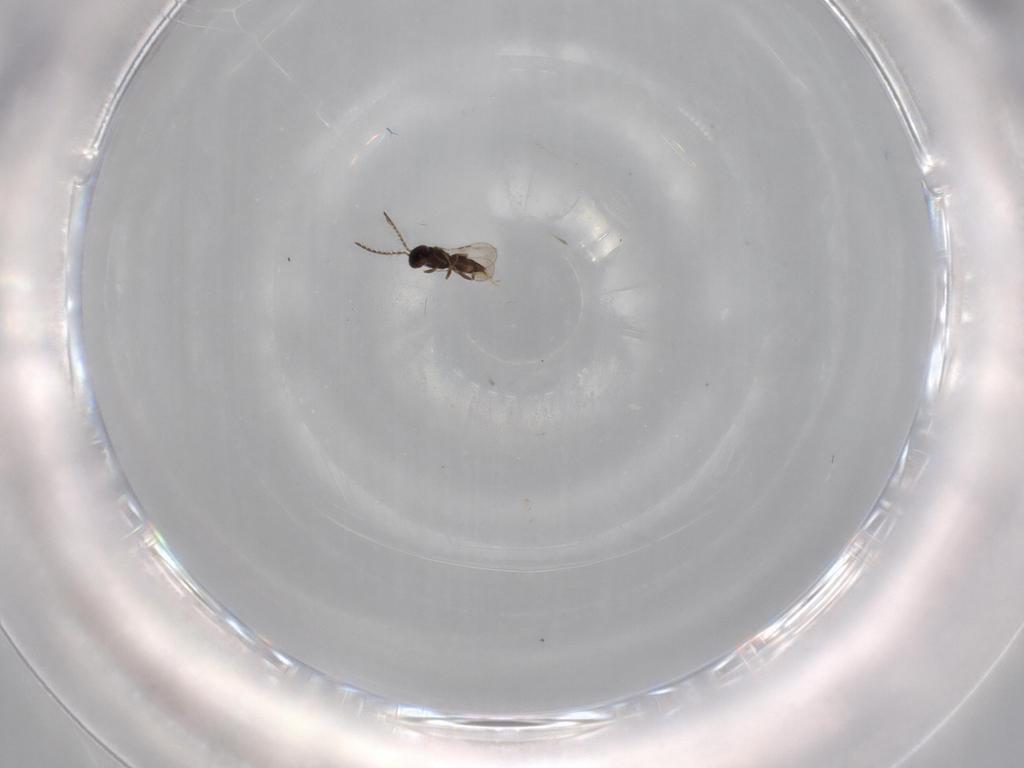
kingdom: Animalia
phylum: Arthropoda
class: Insecta
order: Hymenoptera
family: Ceraphronidae
